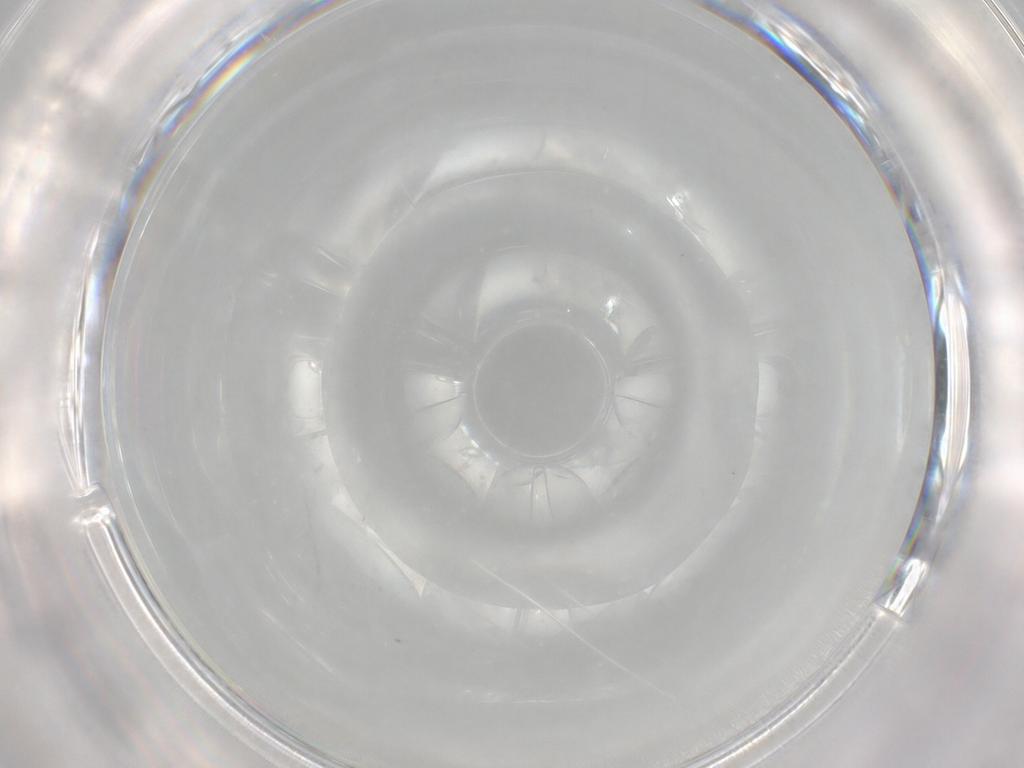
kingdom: Animalia
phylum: Arthropoda
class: Insecta
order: Diptera
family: Bibionidae
